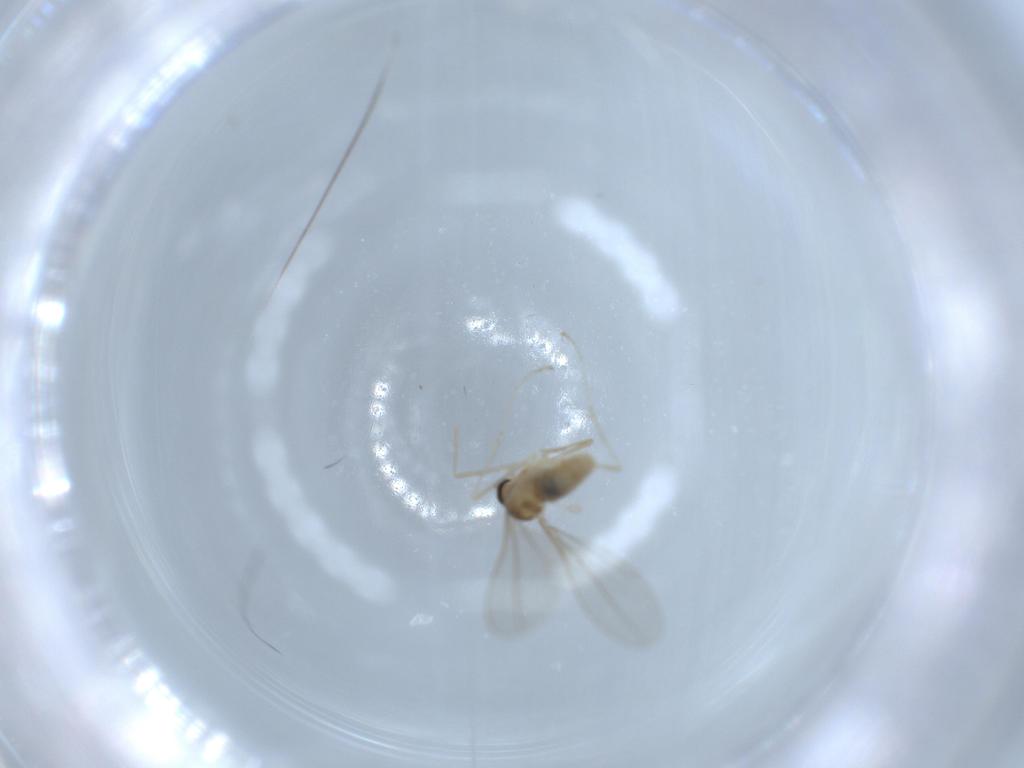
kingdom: Animalia
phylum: Arthropoda
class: Insecta
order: Diptera
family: Cecidomyiidae
